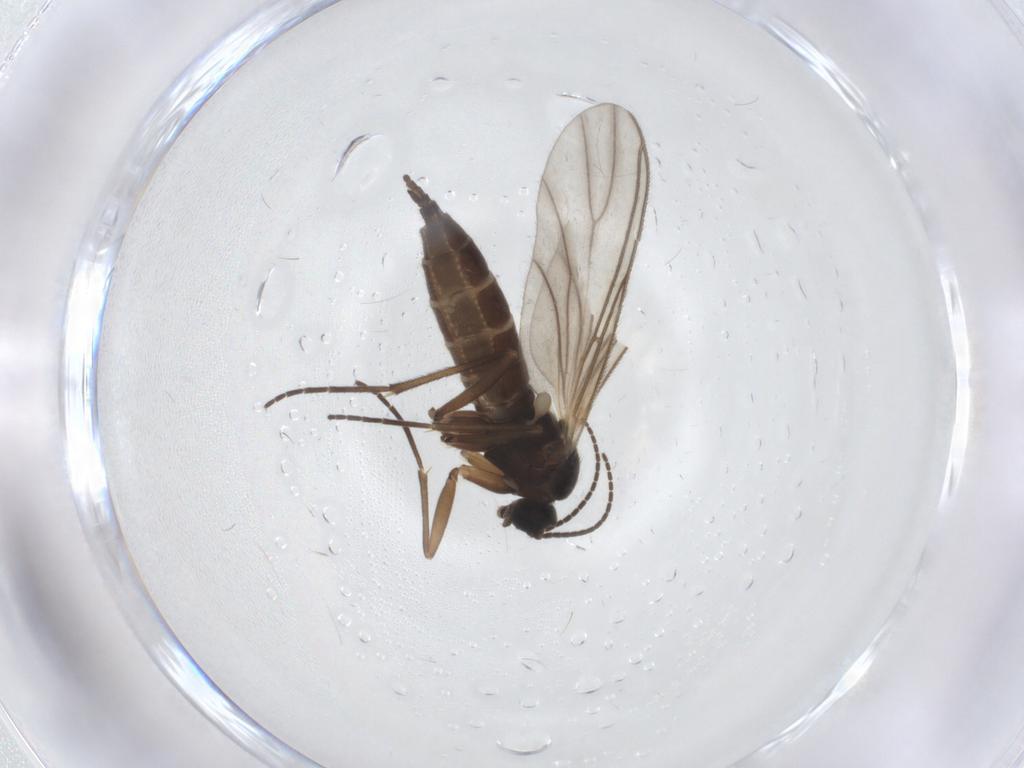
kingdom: Animalia
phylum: Arthropoda
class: Insecta
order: Diptera
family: Sciaridae
